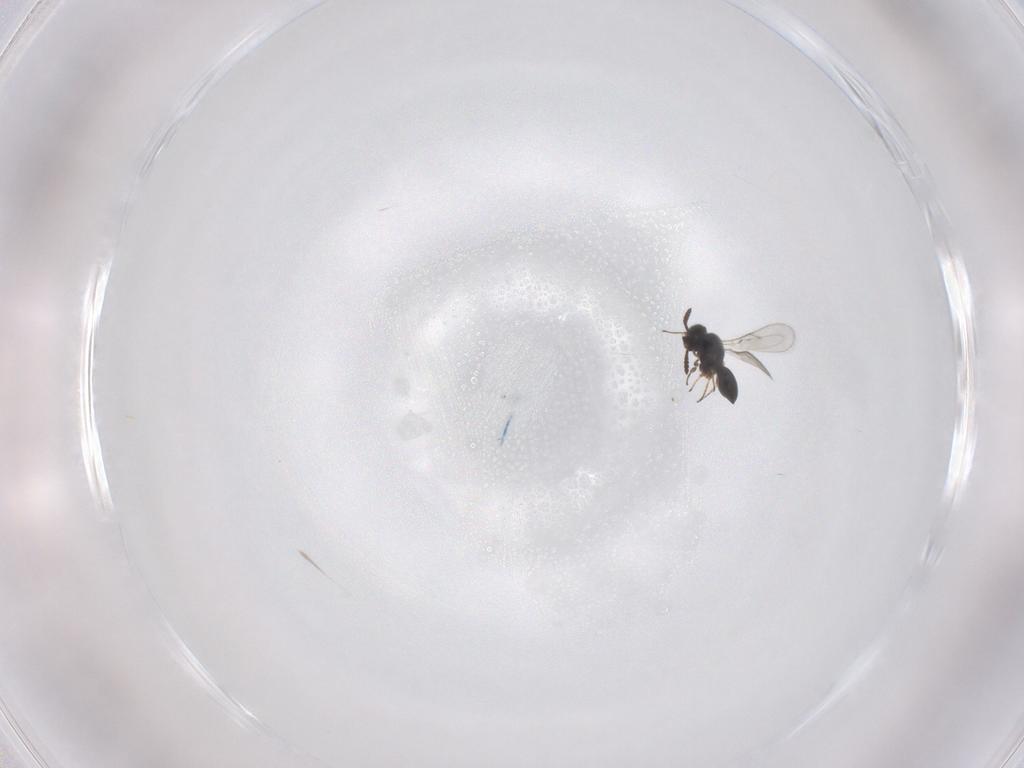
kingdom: Animalia
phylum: Arthropoda
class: Insecta
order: Hymenoptera
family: Scelionidae
